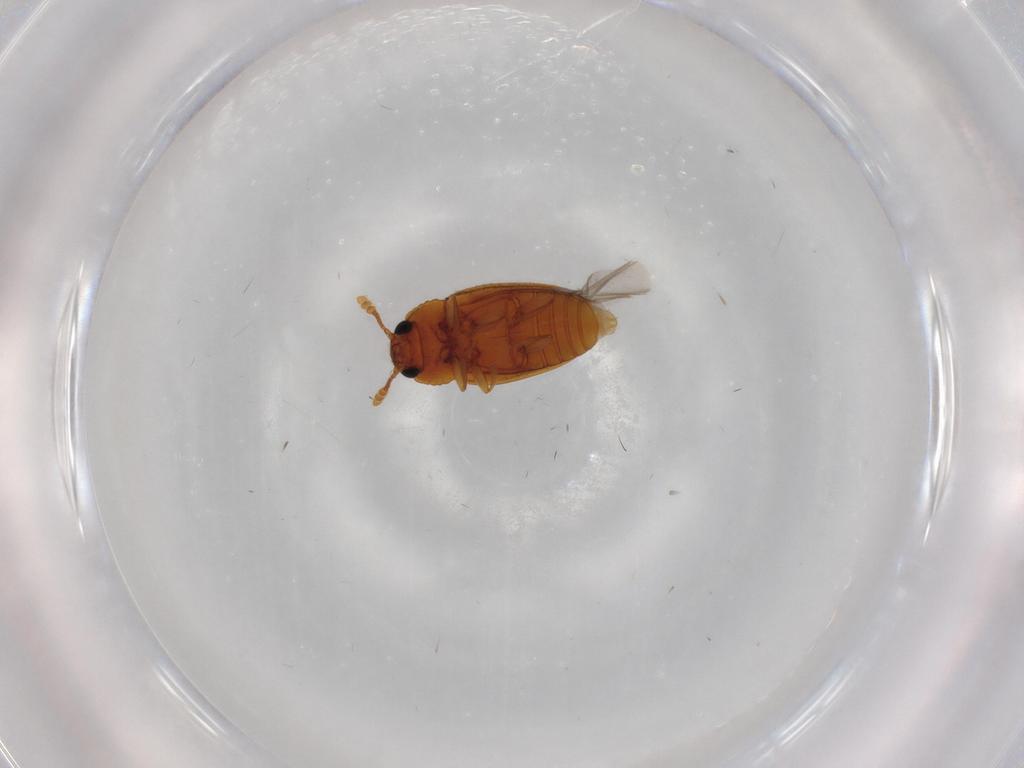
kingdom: Animalia
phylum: Arthropoda
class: Insecta
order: Coleoptera
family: Erotylidae
